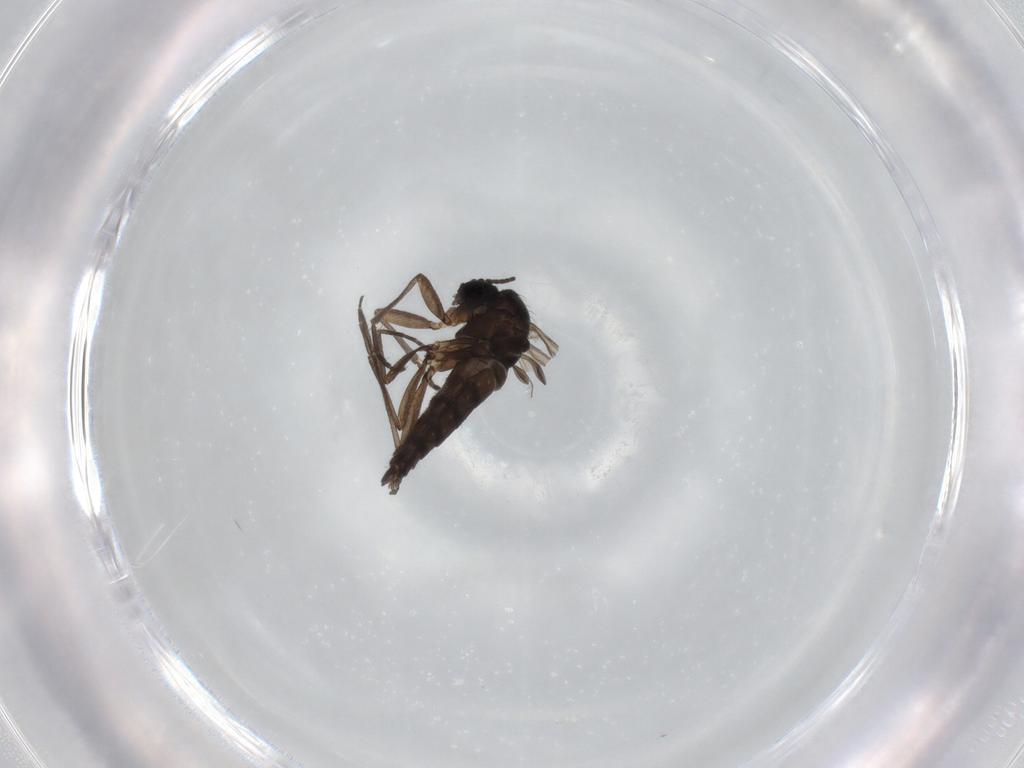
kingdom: Animalia
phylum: Arthropoda
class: Insecta
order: Diptera
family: Sciaridae
